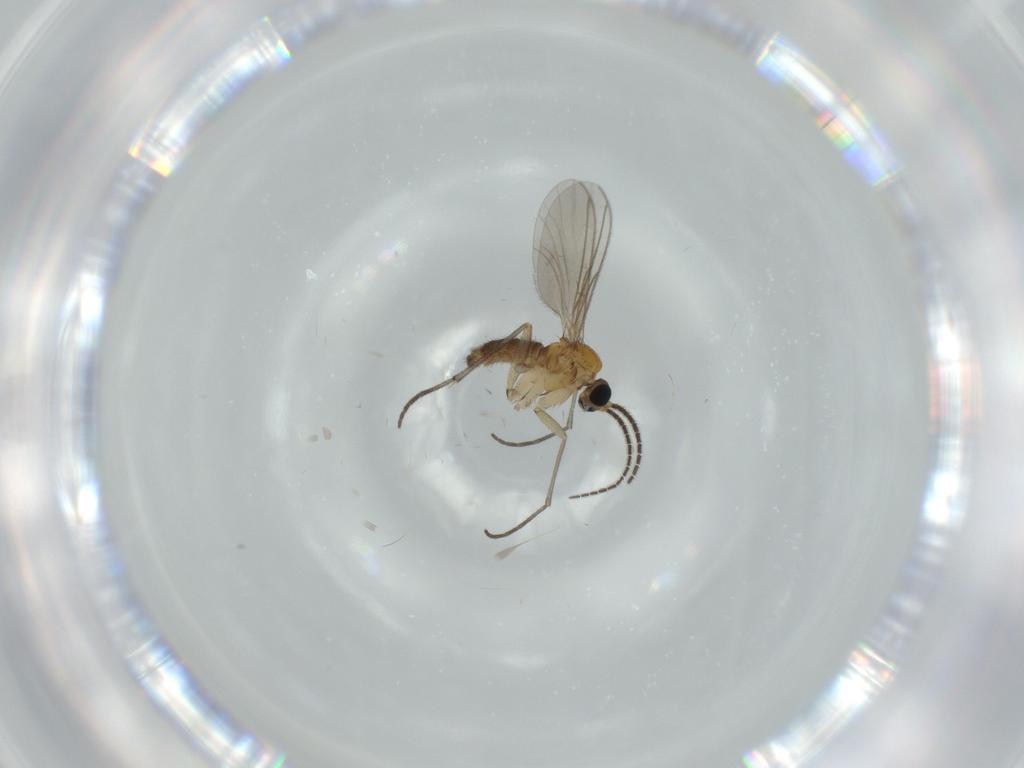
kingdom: Animalia
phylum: Arthropoda
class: Insecta
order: Diptera
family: Sciaridae
